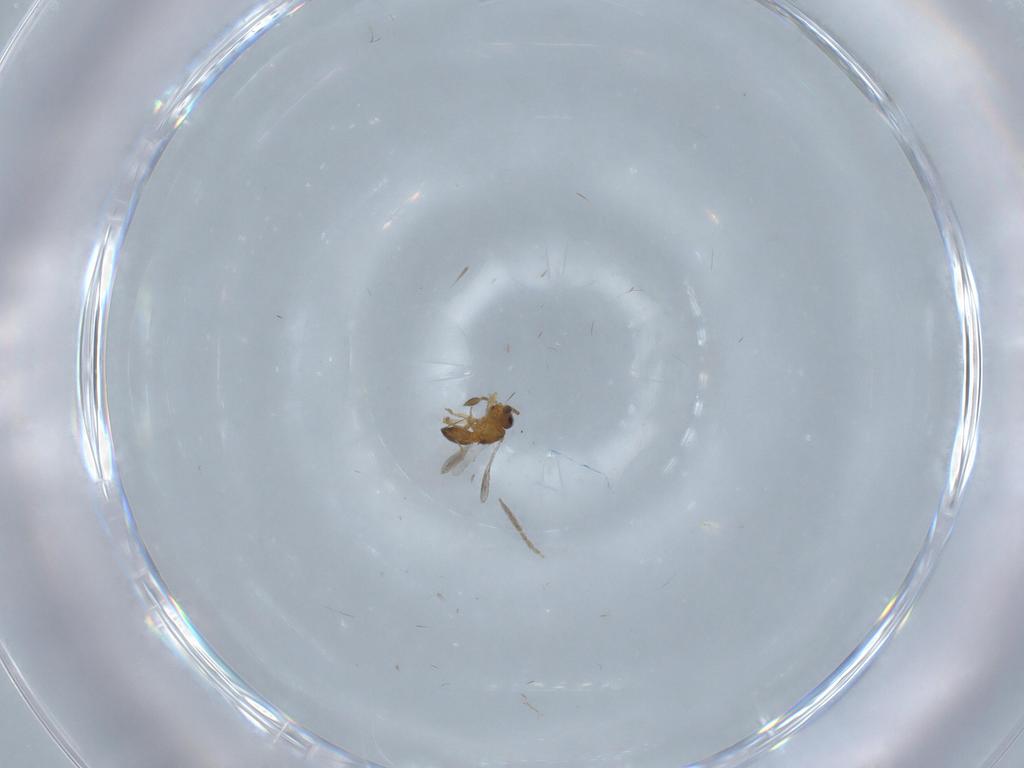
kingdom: Animalia
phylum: Arthropoda
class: Insecta
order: Hymenoptera
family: Scelionidae
